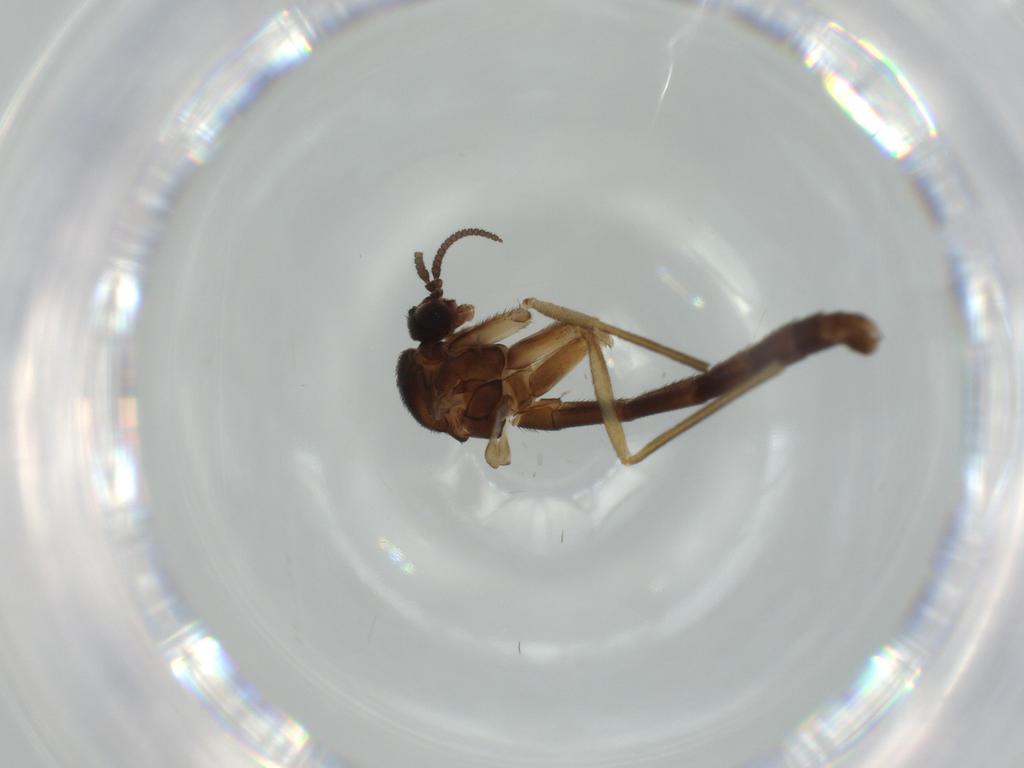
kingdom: Animalia
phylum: Arthropoda
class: Insecta
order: Diptera
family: Keroplatidae
